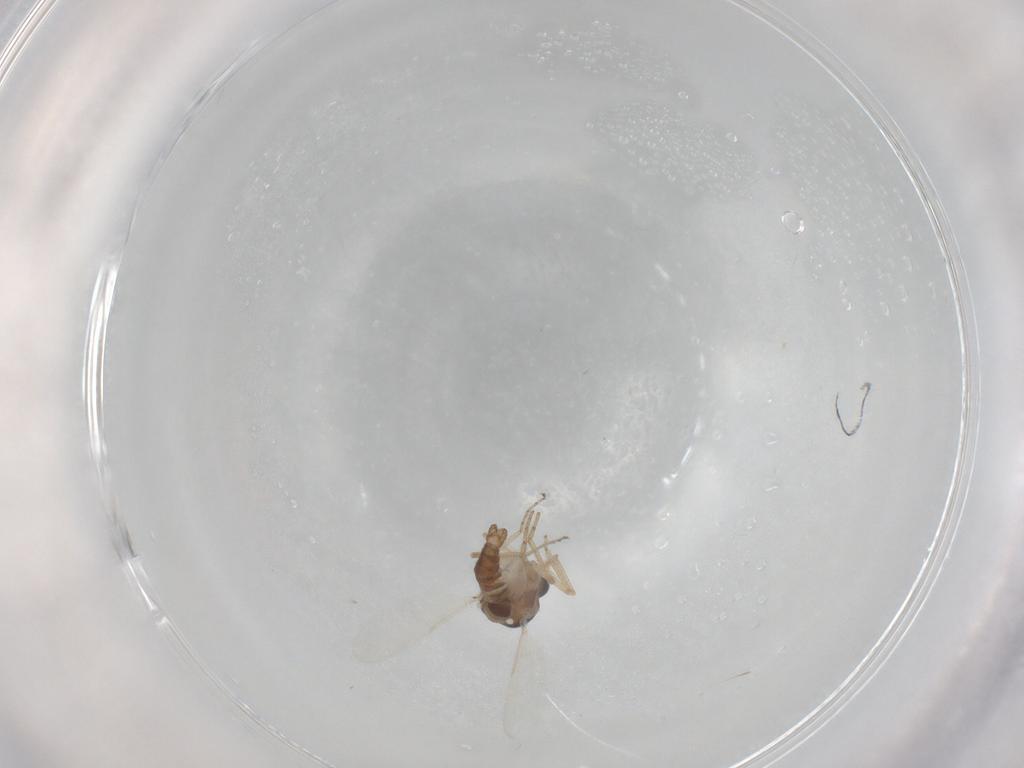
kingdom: Animalia
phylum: Arthropoda
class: Insecta
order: Diptera
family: Ceratopogonidae
